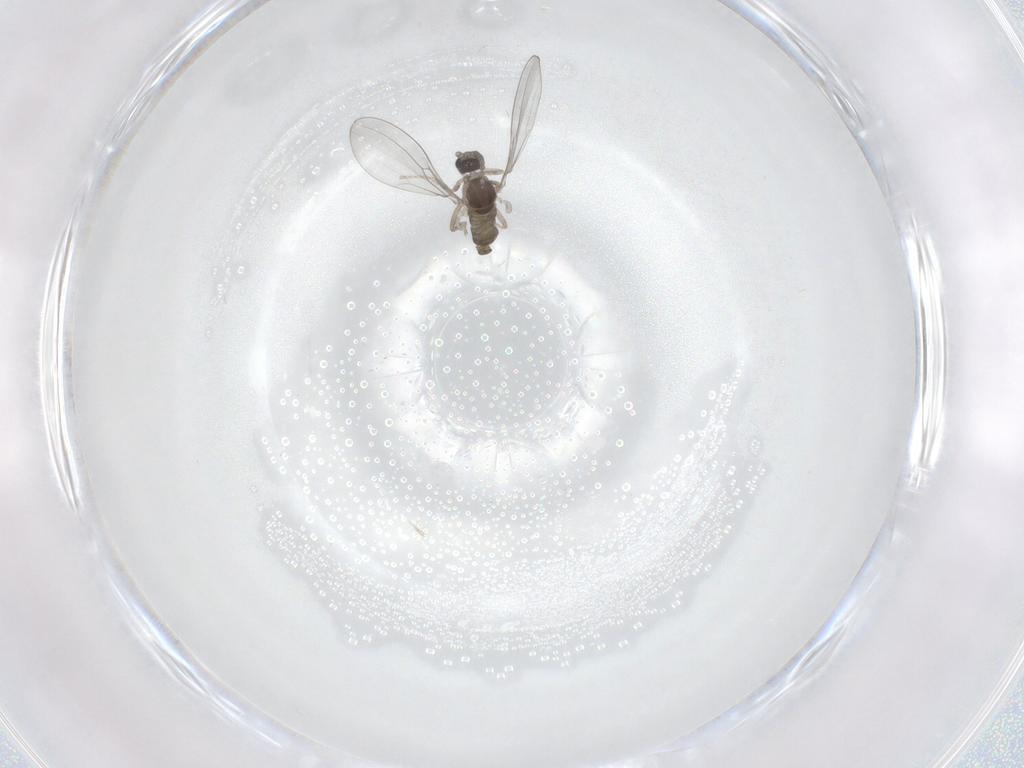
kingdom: Animalia
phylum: Arthropoda
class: Insecta
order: Diptera
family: Cecidomyiidae
